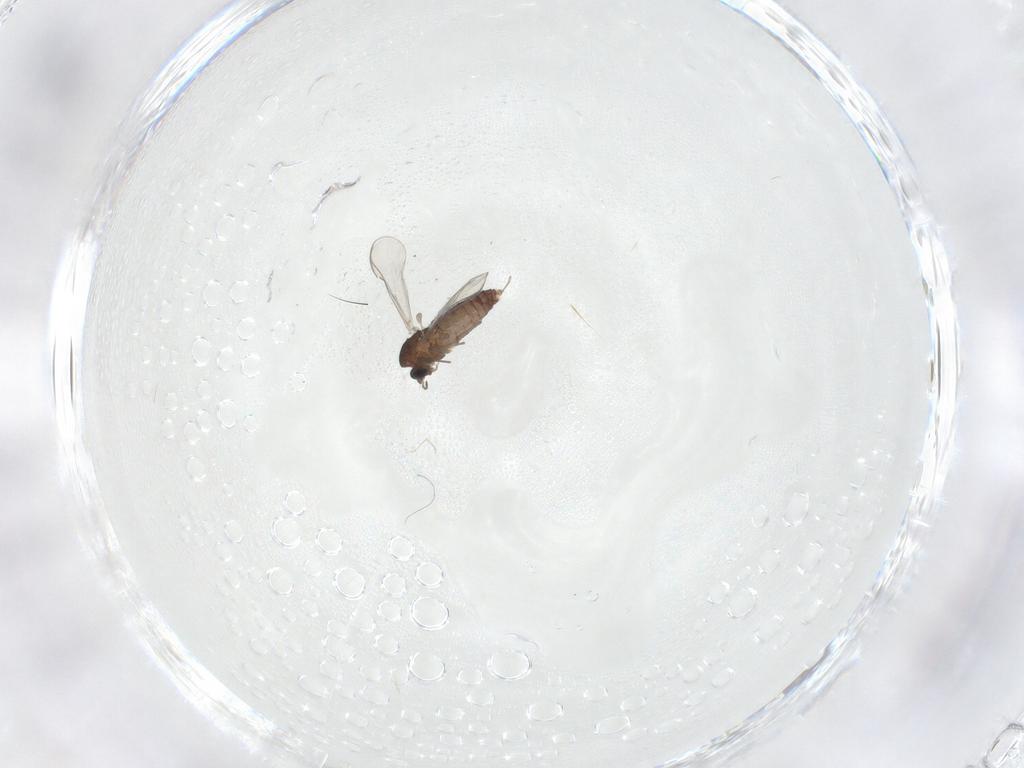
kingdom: Animalia
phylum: Arthropoda
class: Insecta
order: Diptera
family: Chironomidae
